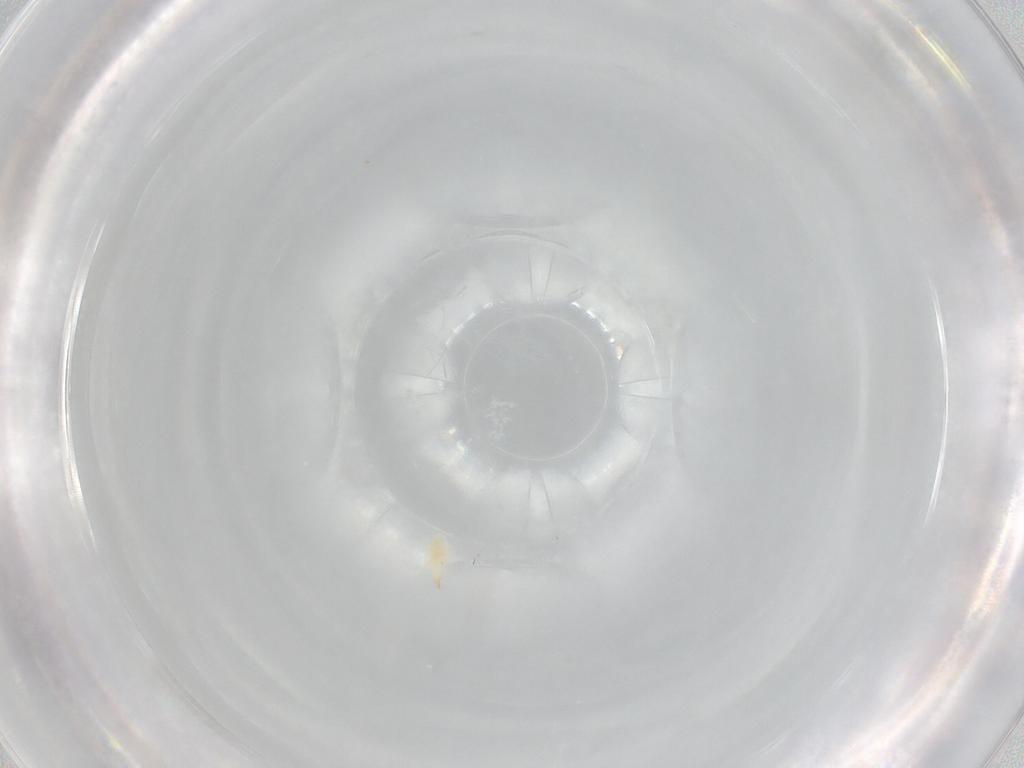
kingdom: Animalia
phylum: Arthropoda
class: Arachnida
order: Sarcoptiformes
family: Mochlozetidae
